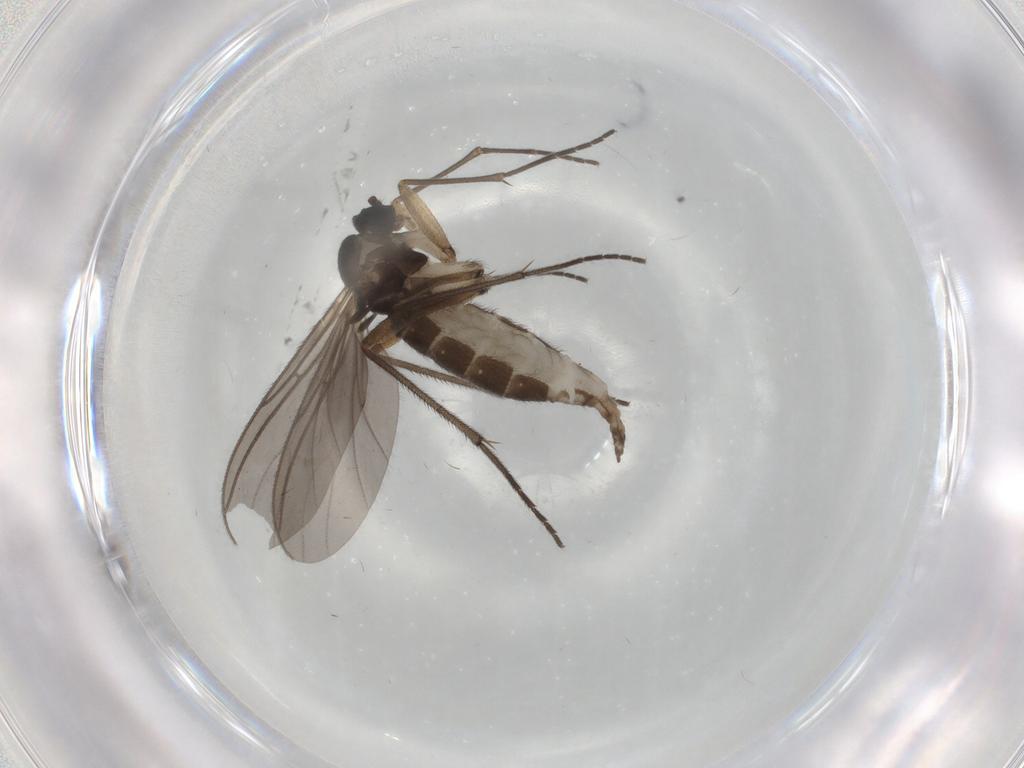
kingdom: Animalia
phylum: Arthropoda
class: Insecta
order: Diptera
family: Sciaridae
